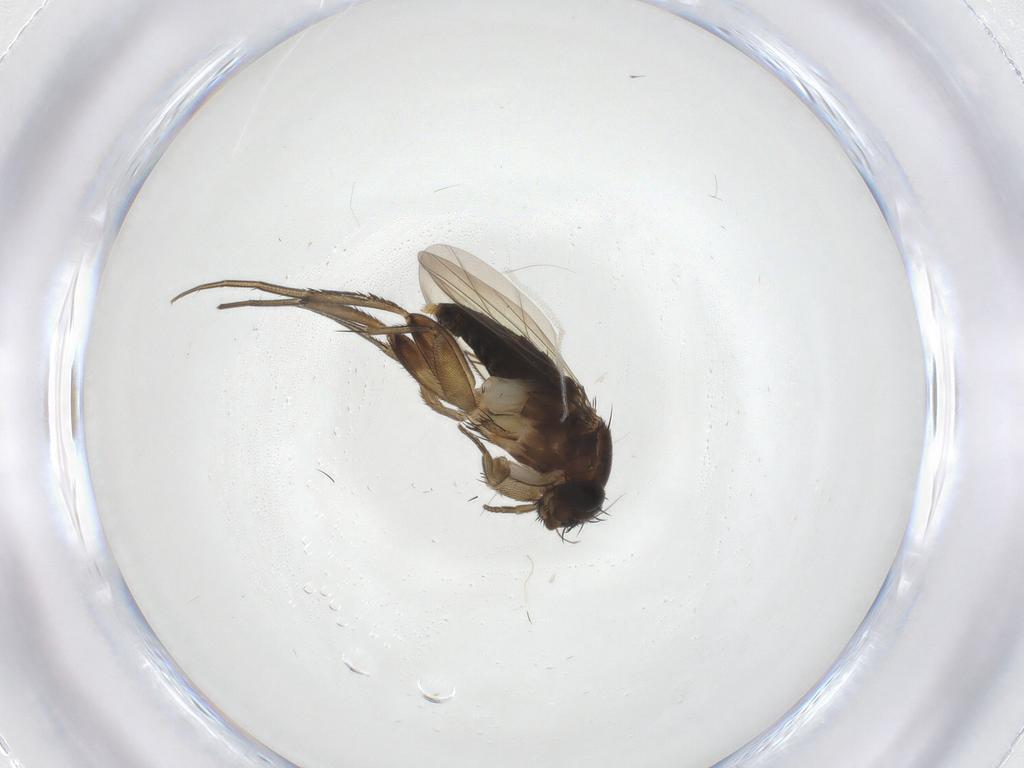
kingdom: Animalia
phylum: Arthropoda
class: Insecta
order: Diptera
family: Phoridae
